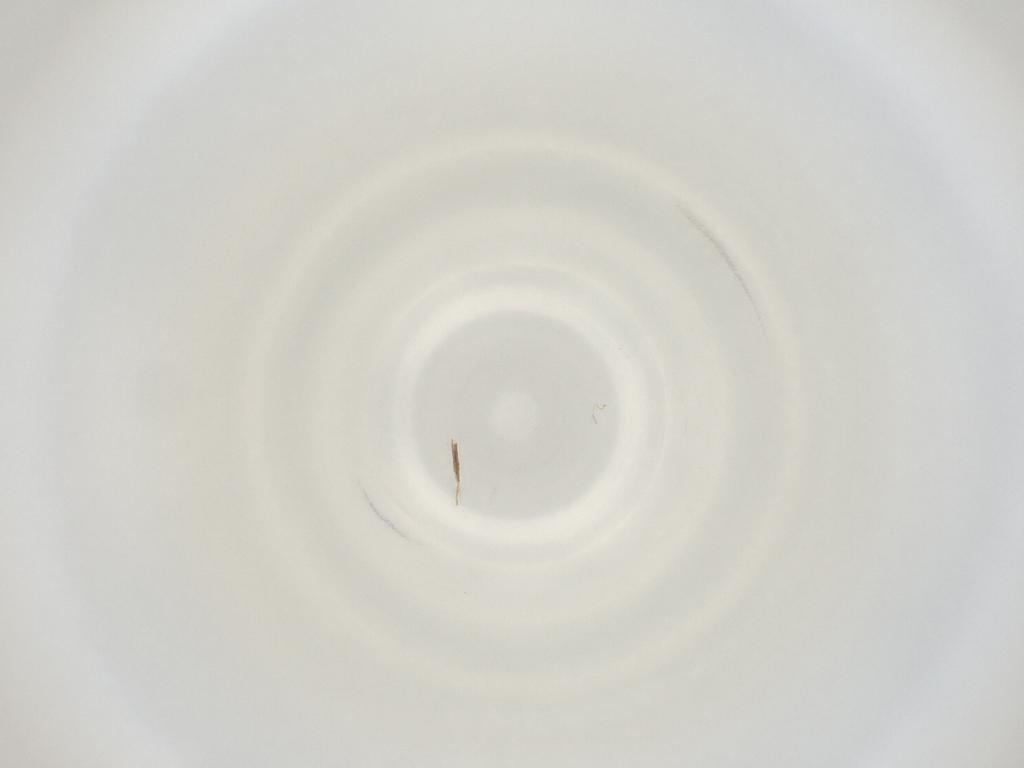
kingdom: Animalia
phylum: Arthropoda
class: Insecta
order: Diptera
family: Cecidomyiidae
